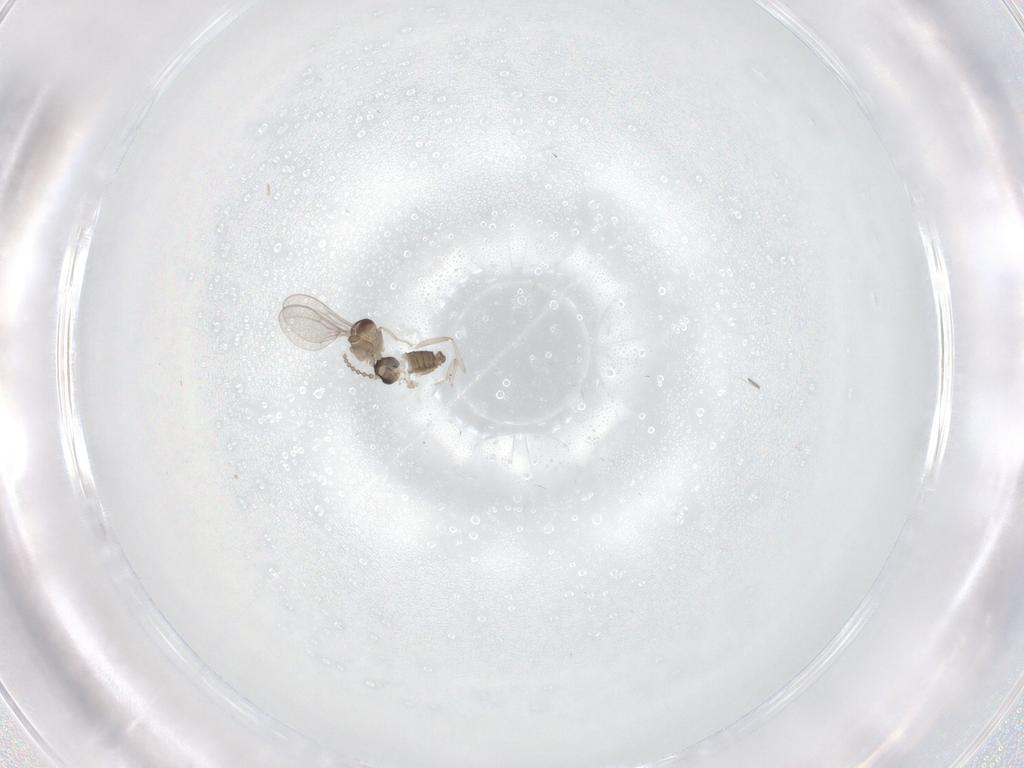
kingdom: Animalia
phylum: Arthropoda
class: Insecta
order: Diptera
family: Cecidomyiidae
